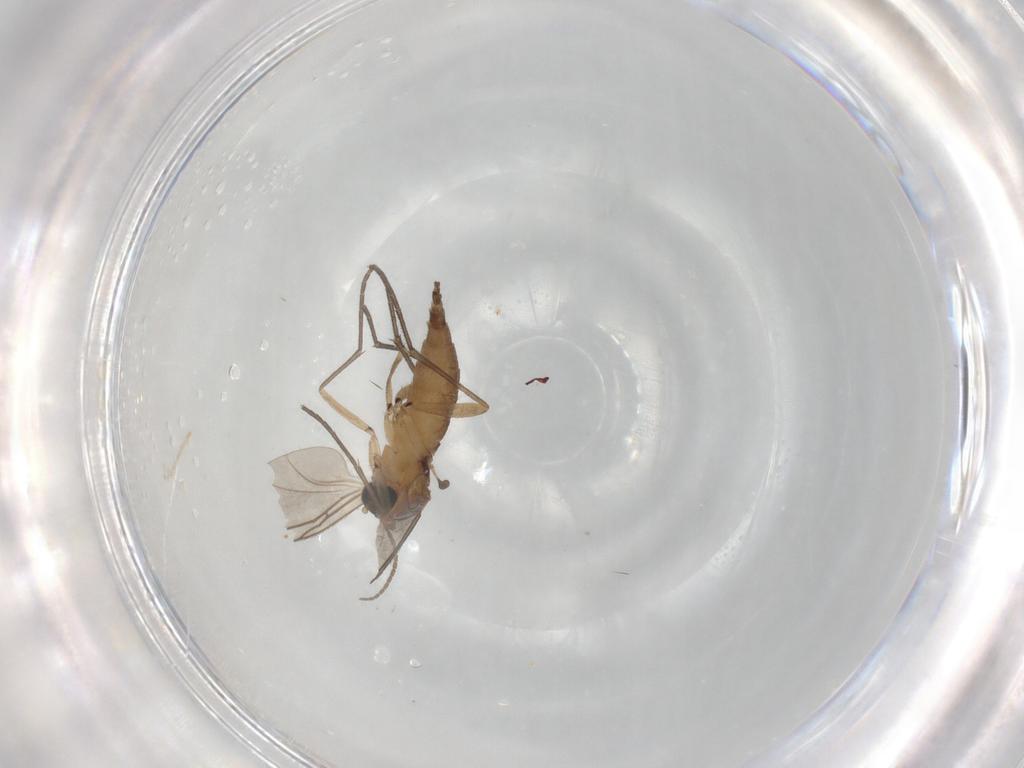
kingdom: Animalia
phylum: Arthropoda
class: Insecta
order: Diptera
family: Sciaridae
